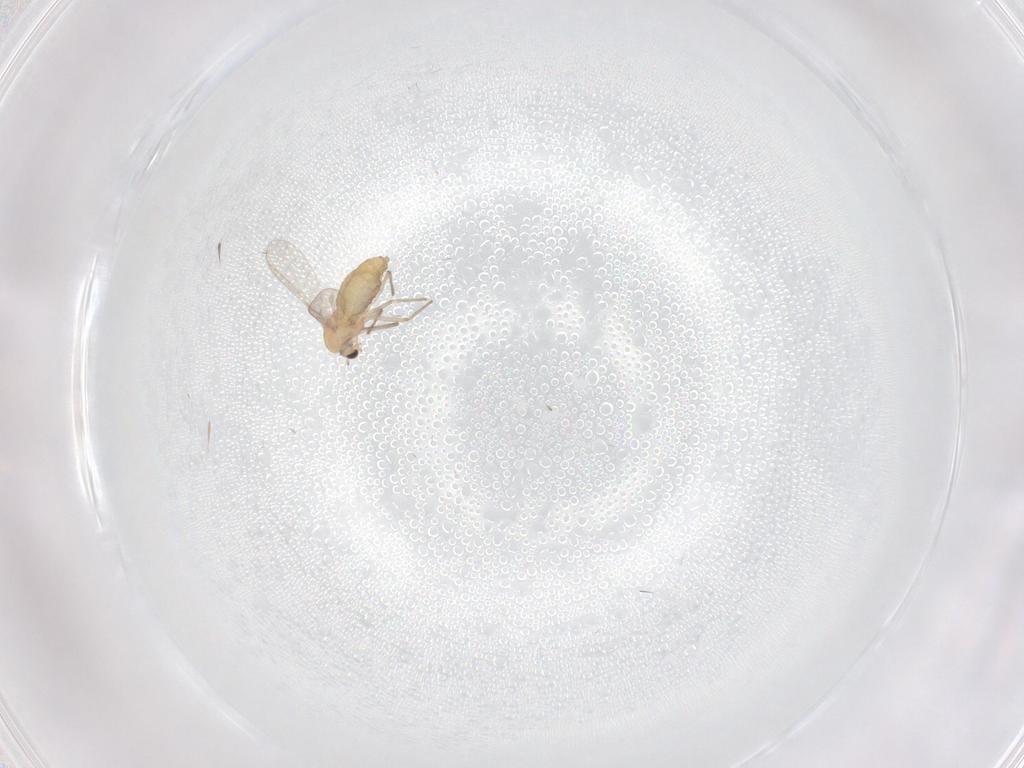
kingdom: Animalia
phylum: Arthropoda
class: Insecta
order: Diptera
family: Chironomidae
